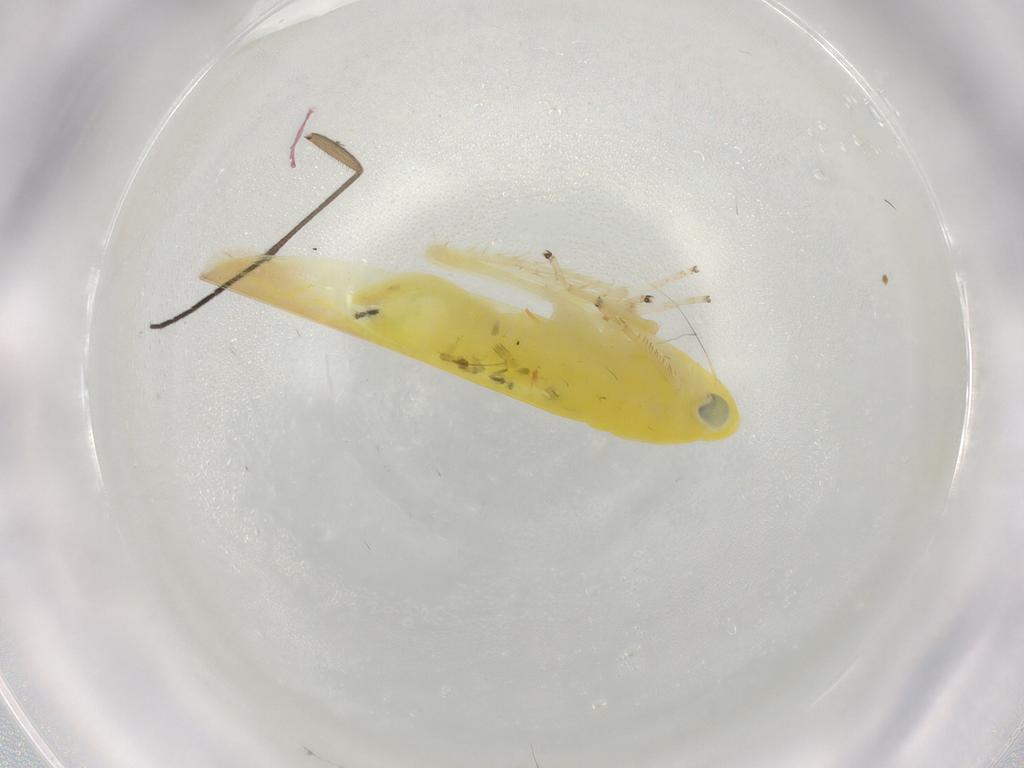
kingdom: Animalia
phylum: Arthropoda
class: Insecta
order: Hemiptera
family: Cicadellidae
